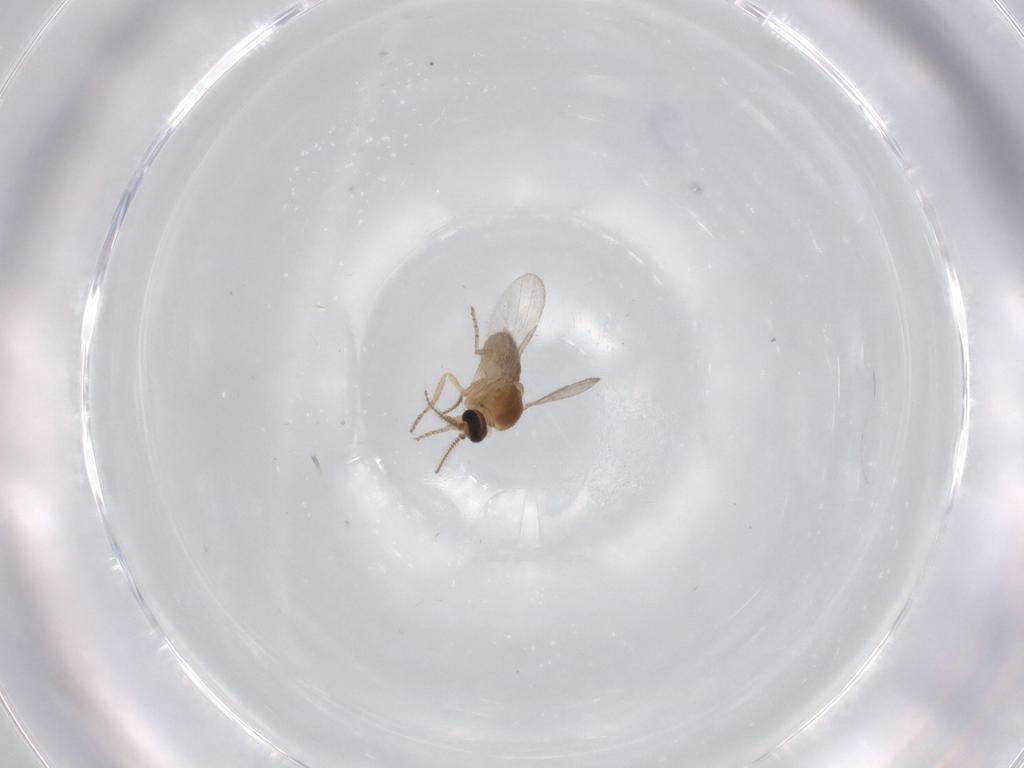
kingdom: Animalia
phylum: Arthropoda
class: Insecta
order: Diptera
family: Ceratopogonidae
